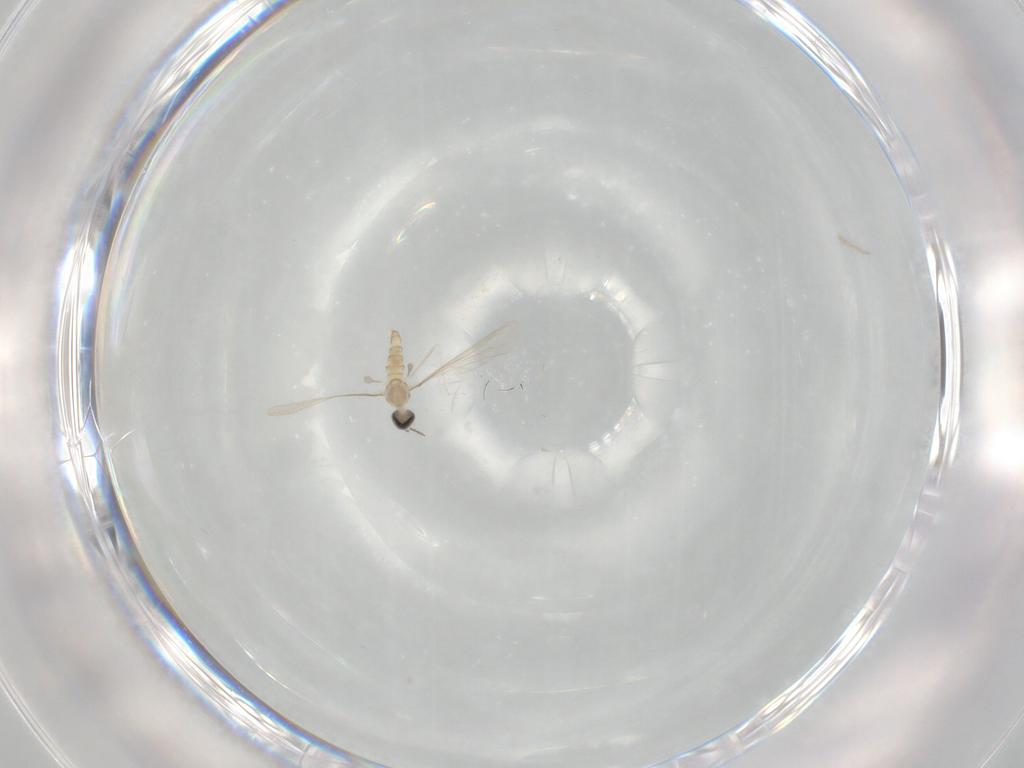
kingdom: Animalia
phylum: Arthropoda
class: Insecta
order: Diptera
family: Cecidomyiidae
